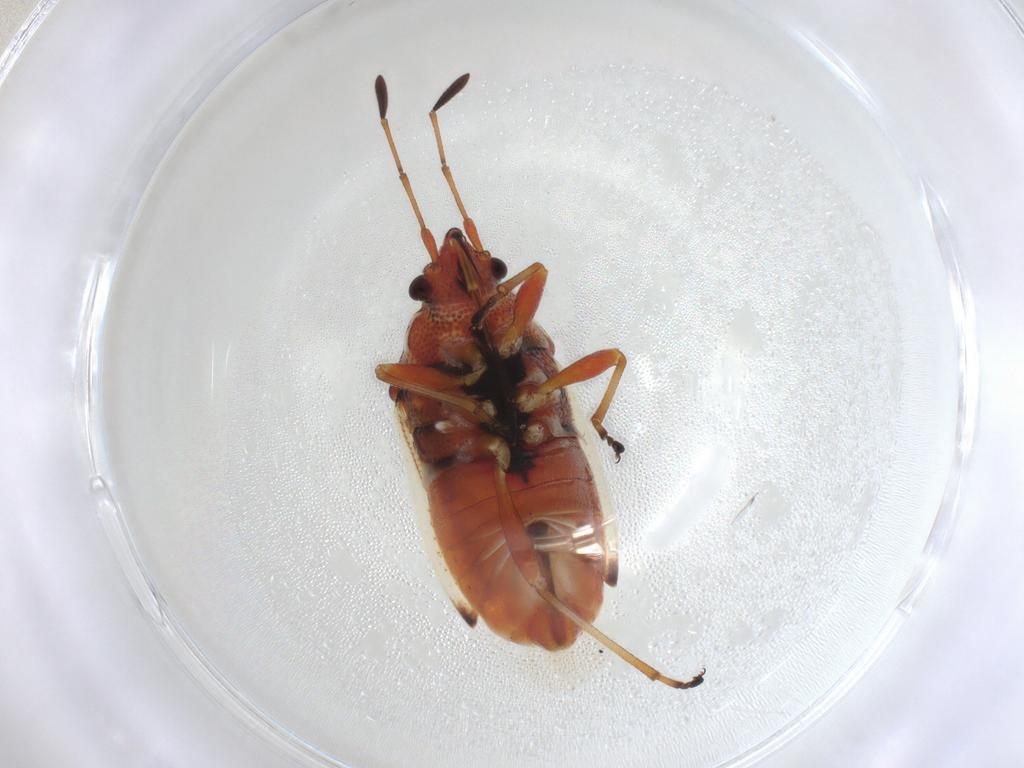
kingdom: Animalia
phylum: Arthropoda
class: Insecta
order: Hemiptera
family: Lygaeidae
